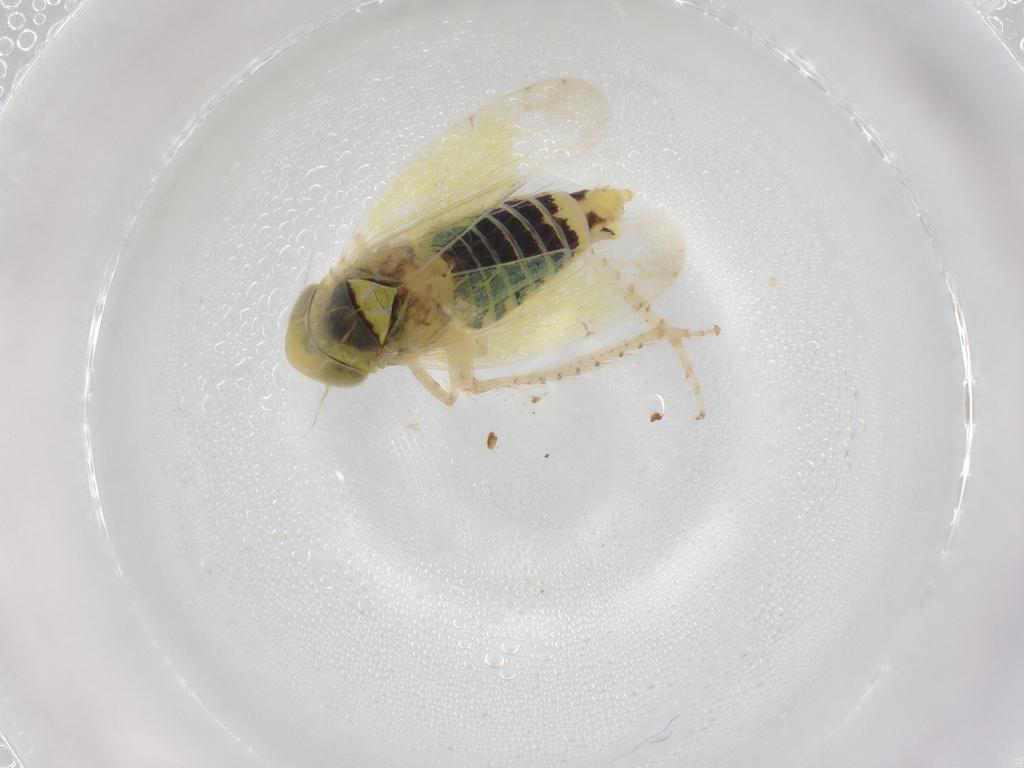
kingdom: Animalia
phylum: Arthropoda
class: Insecta
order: Hemiptera
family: Cicadellidae
